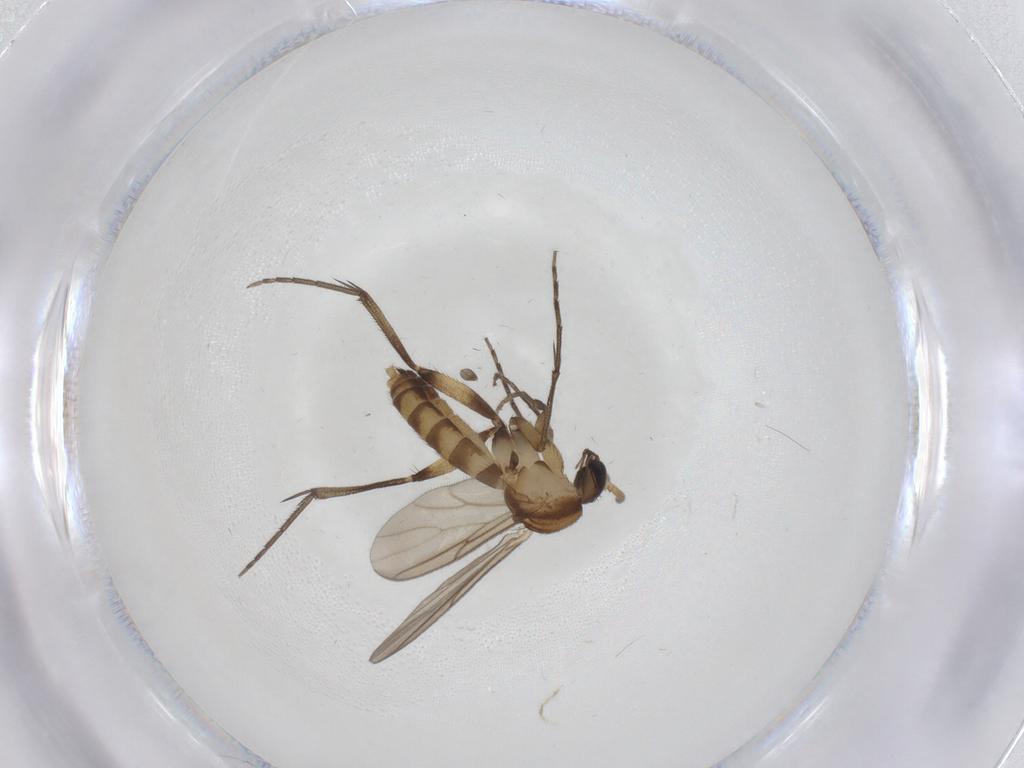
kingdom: Animalia
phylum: Arthropoda
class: Insecta
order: Diptera
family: Mycetophilidae
